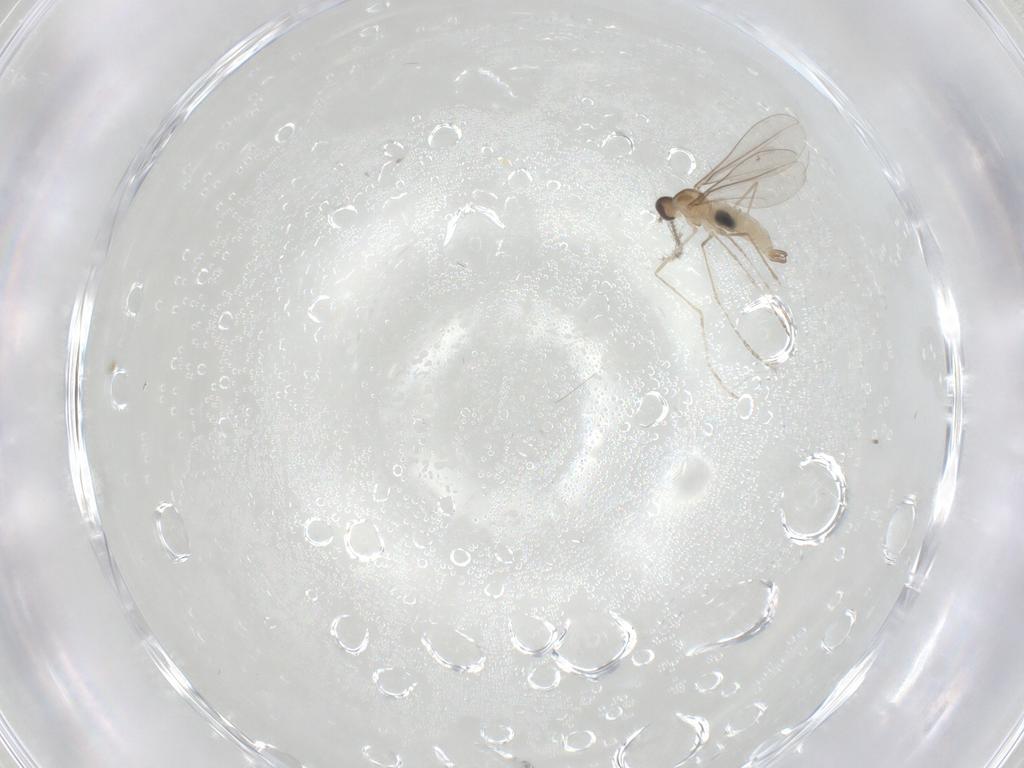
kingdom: Animalia
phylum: Arthropoda
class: Insecta
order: Diptera
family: Cecidomyiidae
